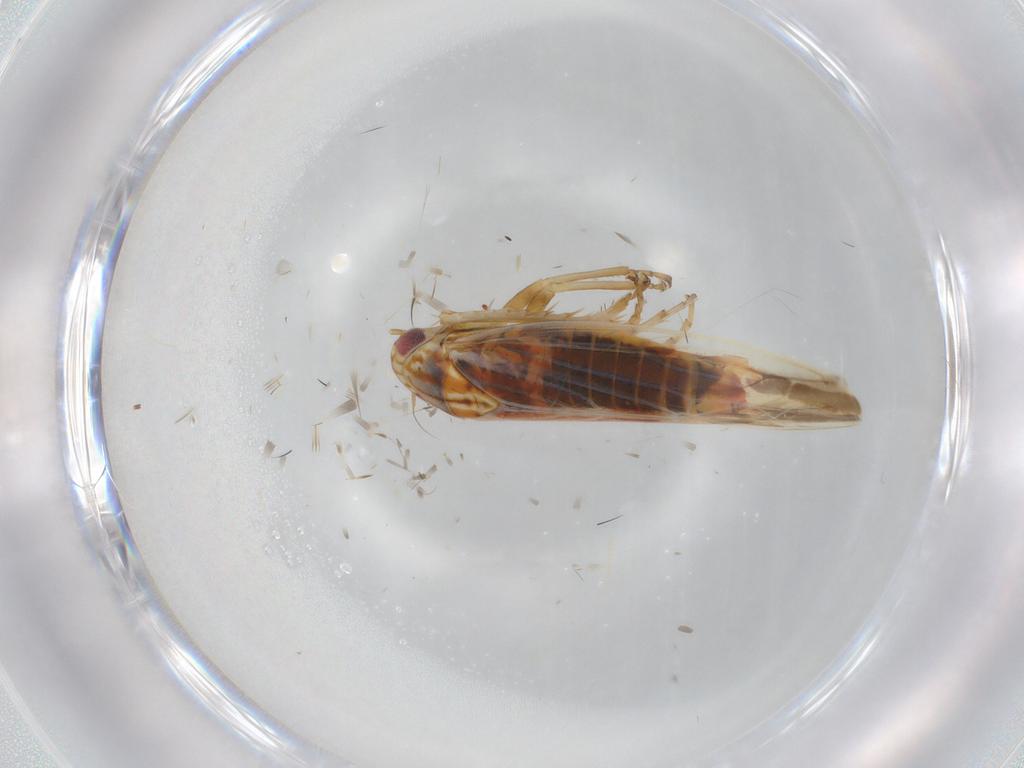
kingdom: Animalia
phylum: Arthropoda
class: Insecta
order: Hemiptera
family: Cicadellidae
